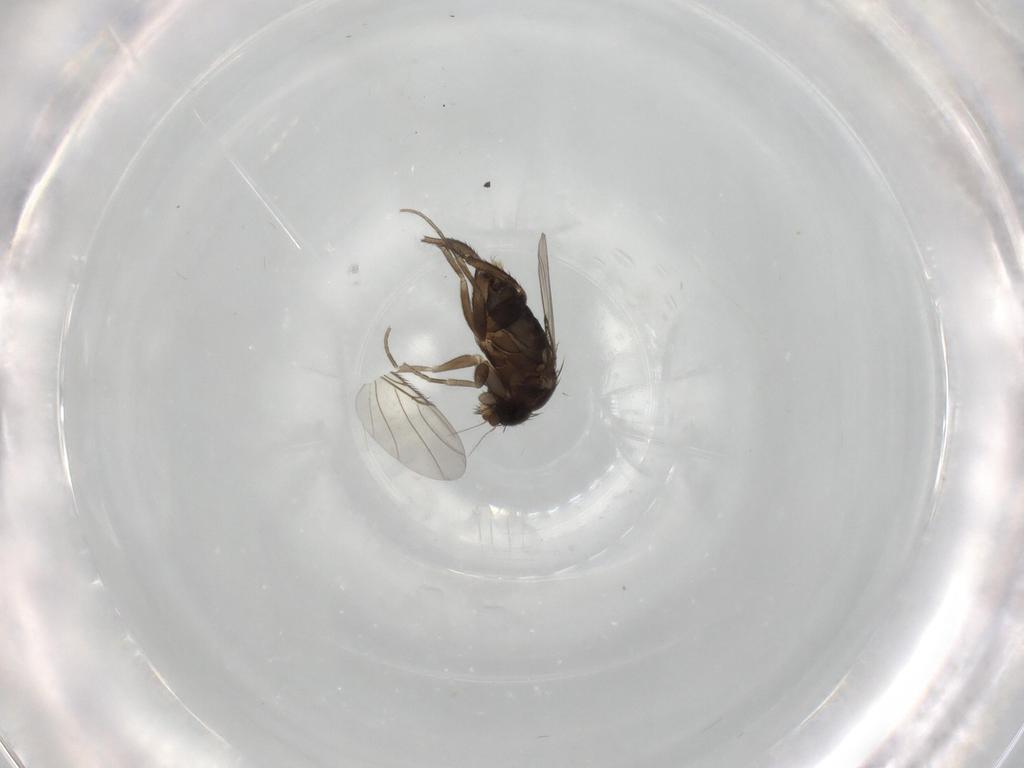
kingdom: Animalia
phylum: Arthropoda
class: Insecta
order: Diptera
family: Phoridae
